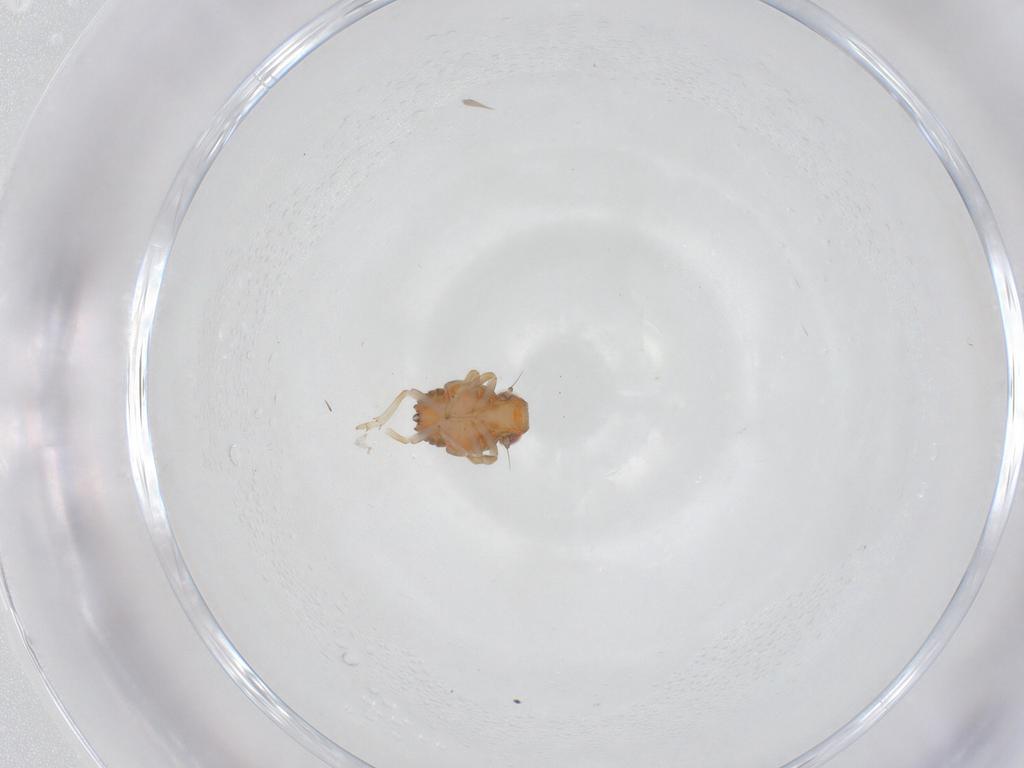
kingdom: Animalia
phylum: Arthropoda
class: Insecta
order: Hemiptera
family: Issidae
